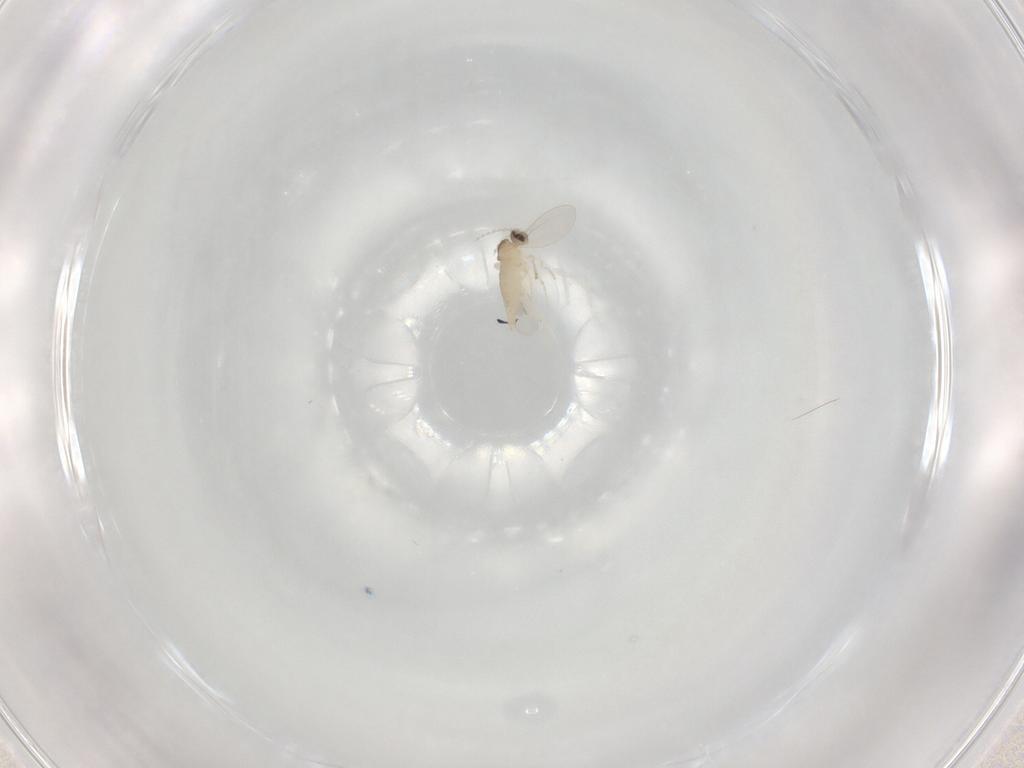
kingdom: Animalia
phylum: Arthropoda
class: Insecta
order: Diptera
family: Cecidomyiidae
